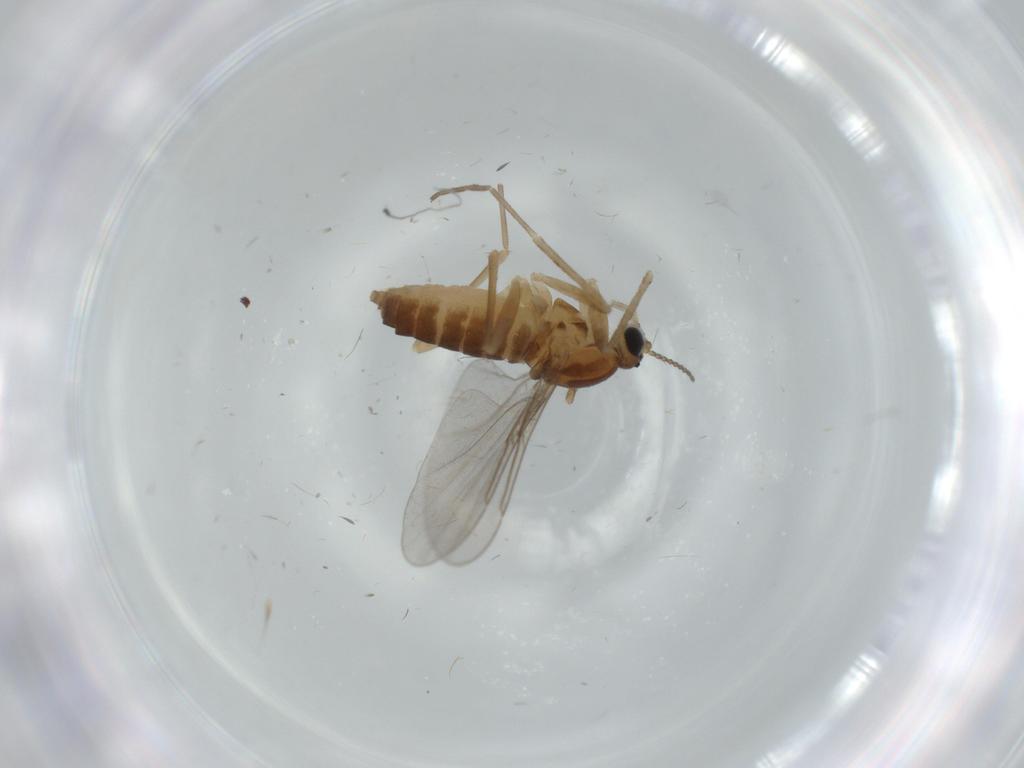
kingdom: Animalia
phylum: Arthropoda
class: Insecta
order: Diptera
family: Cecidomyiidae
